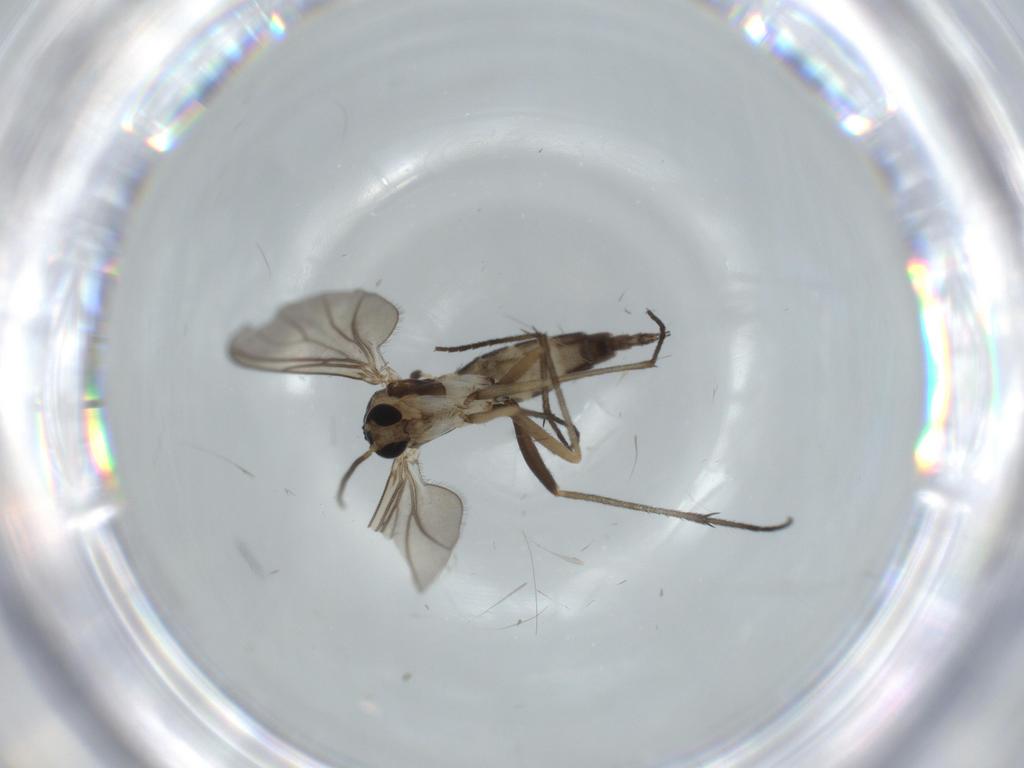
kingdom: Animalia
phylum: Arthropoda
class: Insecta
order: Diptera
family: Sciaridae
